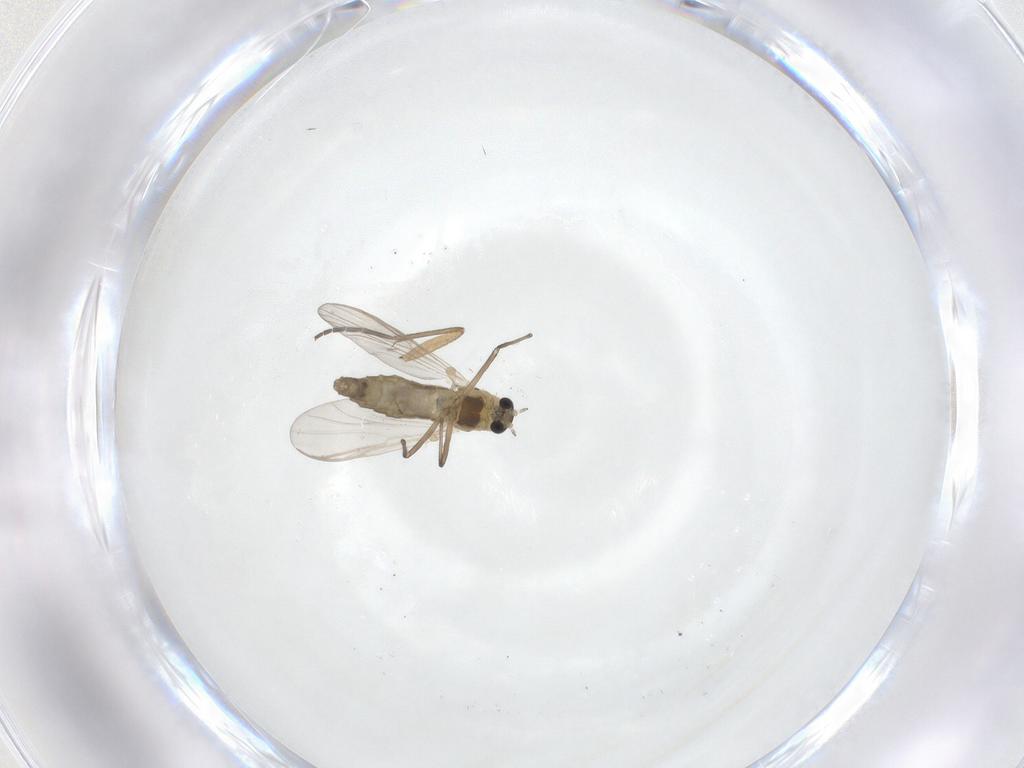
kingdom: Animalia
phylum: Arthropoda
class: Insecta
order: Diptera
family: Chironomidae
